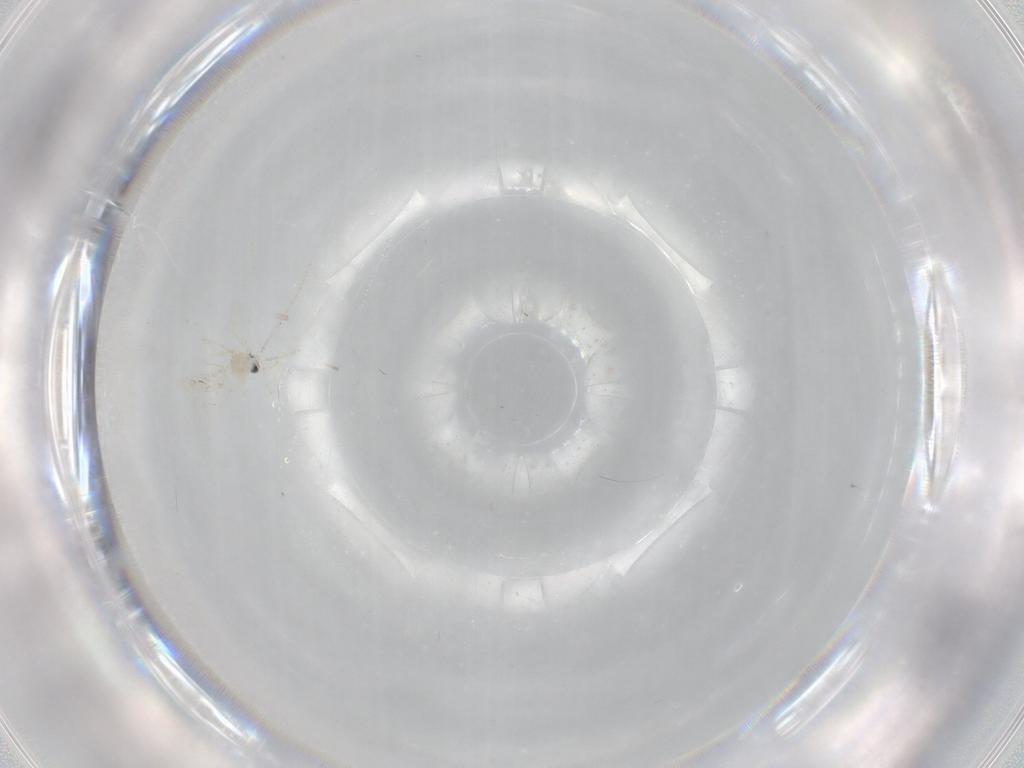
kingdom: Animalia
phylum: Arthropoda
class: Insecta
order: Diptera
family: Cecidomyiidae
